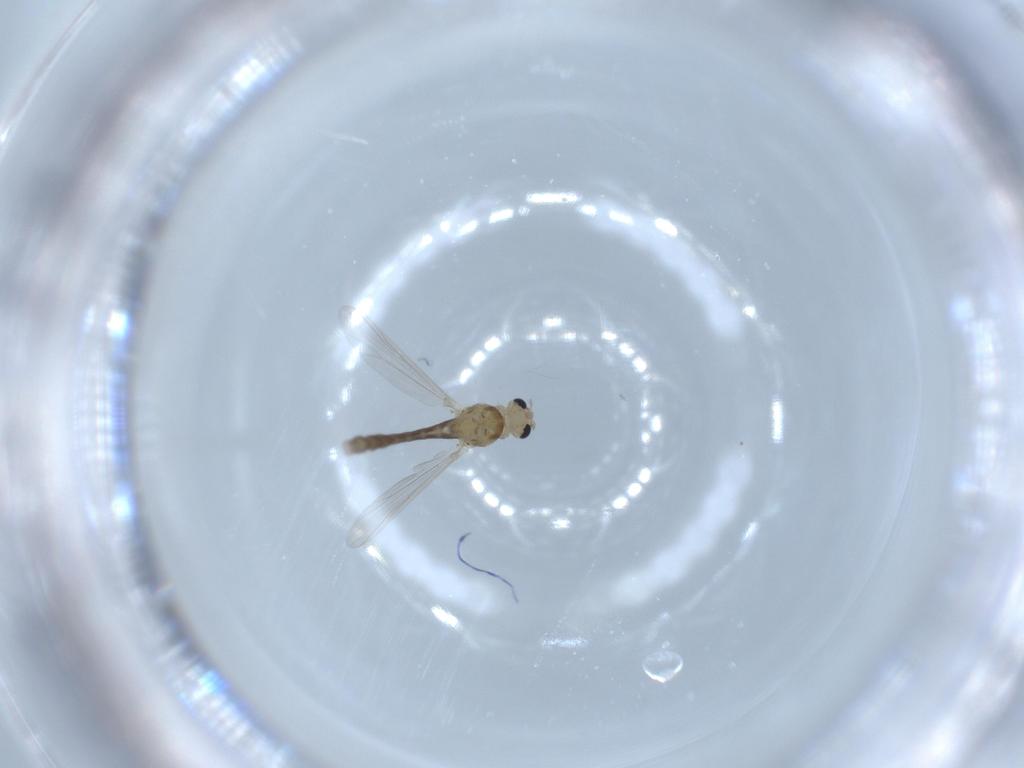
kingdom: Animalia
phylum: Arthropoda
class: Insecta
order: Diptera
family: Chironomidae
